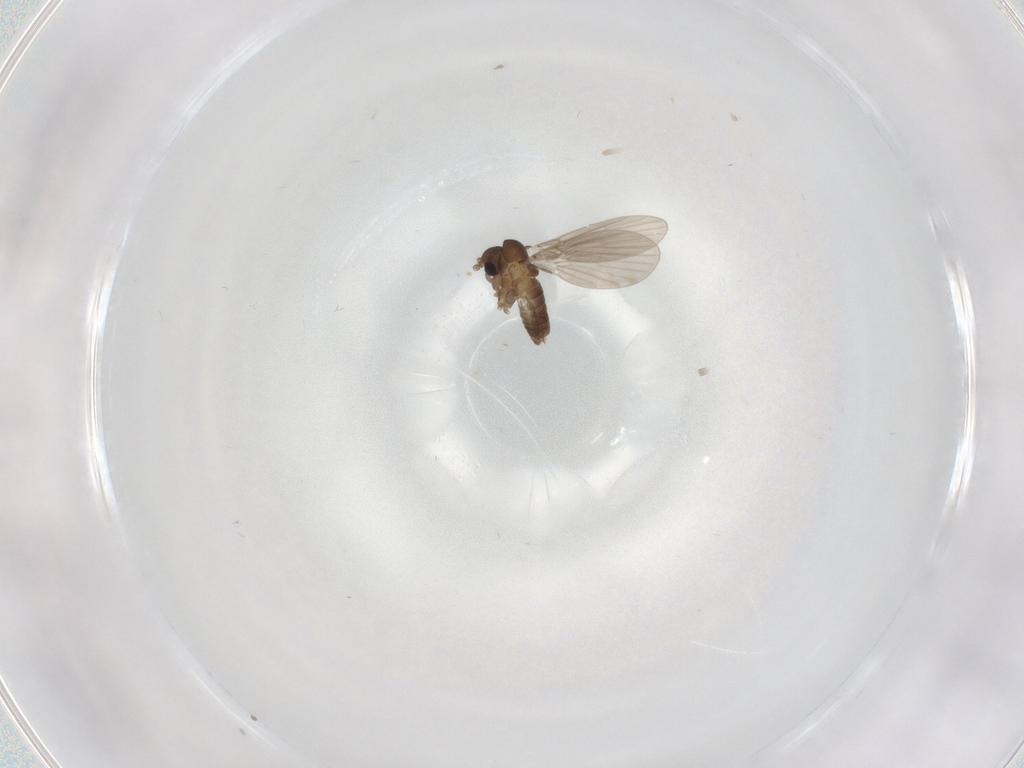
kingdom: Animalia
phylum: Arthropoda
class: Insecta
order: Diptera
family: Psychodidae
